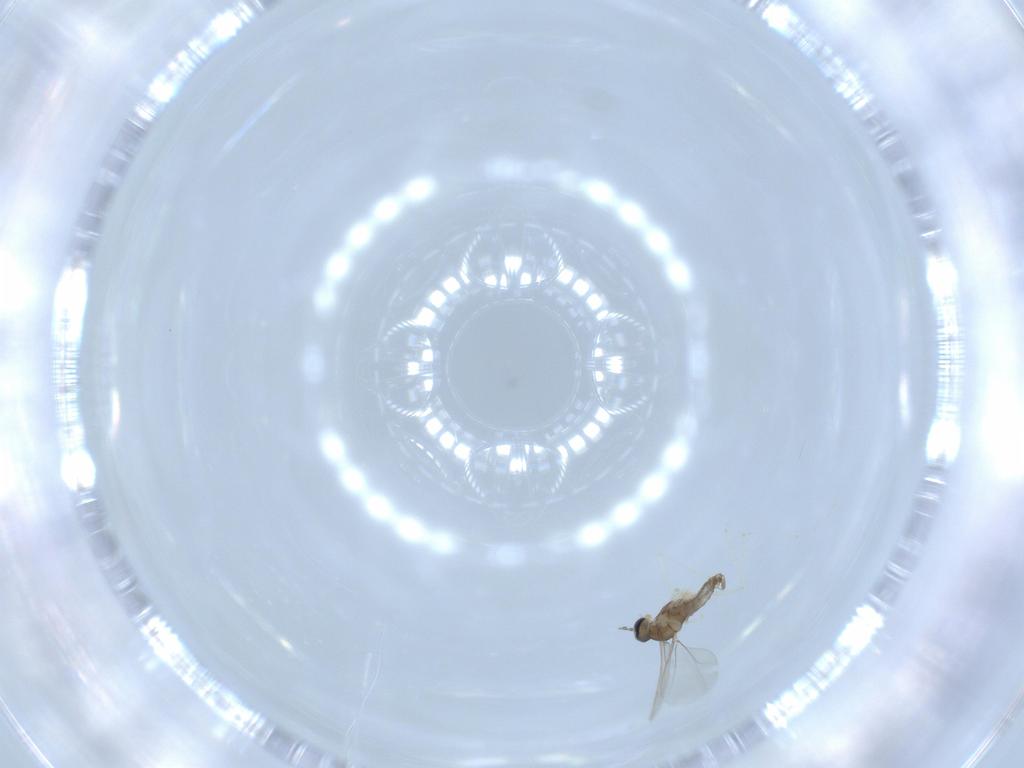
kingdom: Animalia
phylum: Arthropoda
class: Insecta
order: Diptera
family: Cecidomyiidae
